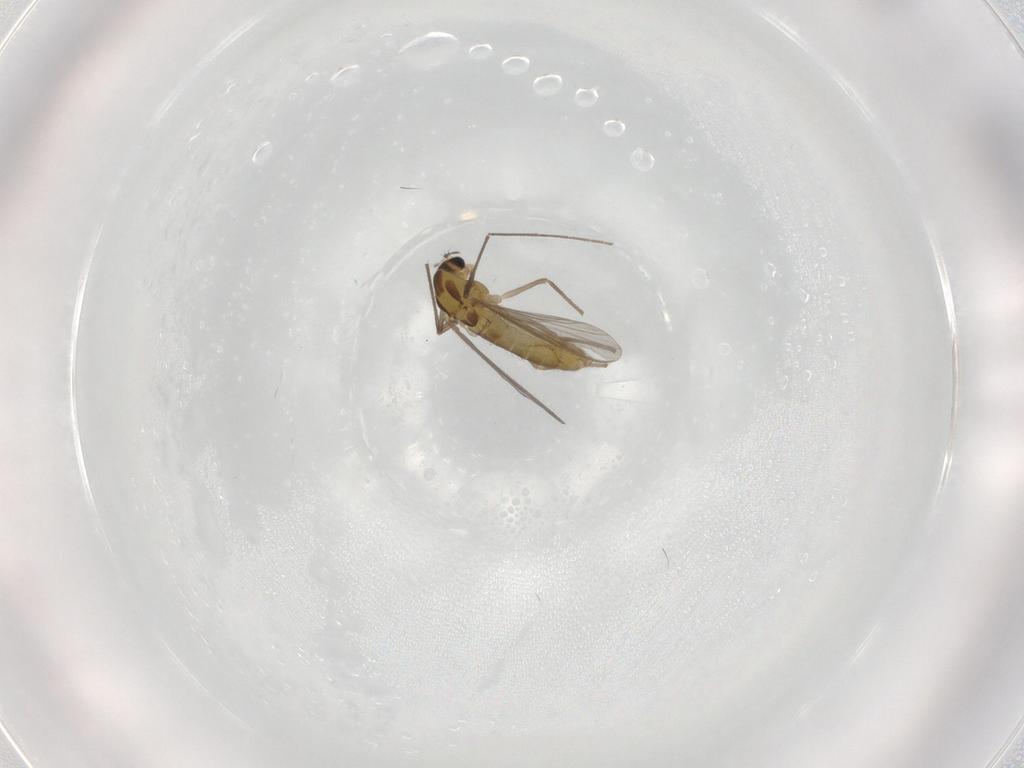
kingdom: Animalia
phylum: Arthropoda
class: Insecta
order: Diptera
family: Chironomidae
